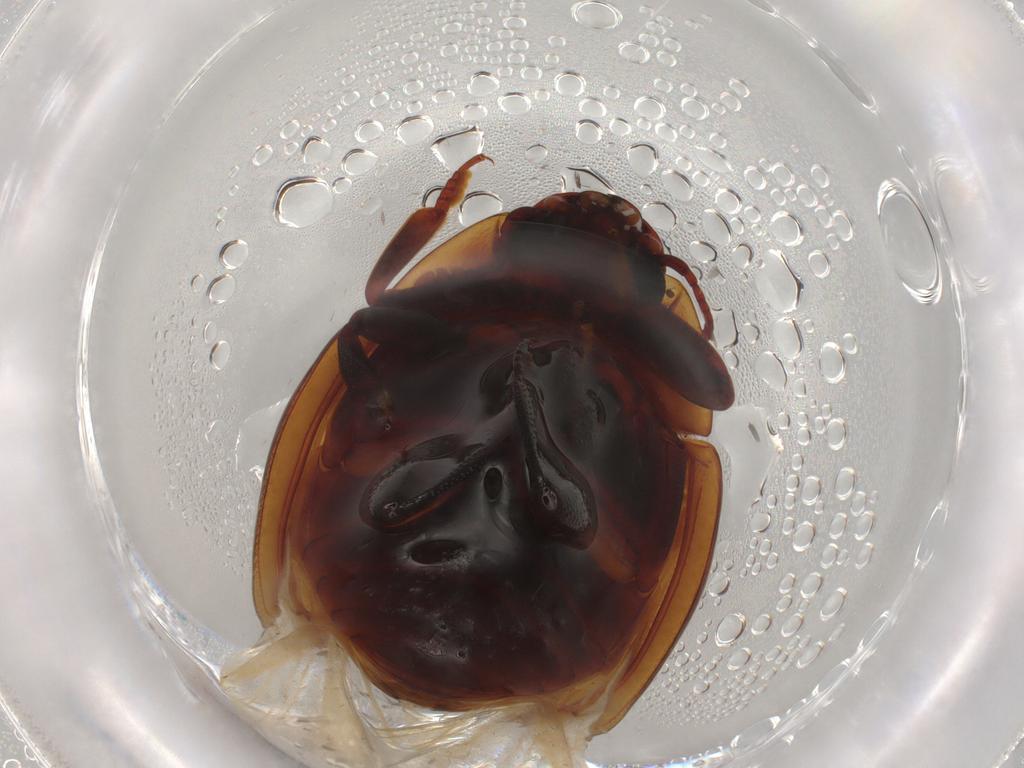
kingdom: Animalia
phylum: Arthropoda
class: Insecta
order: Coleoptera
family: Zopheridae
